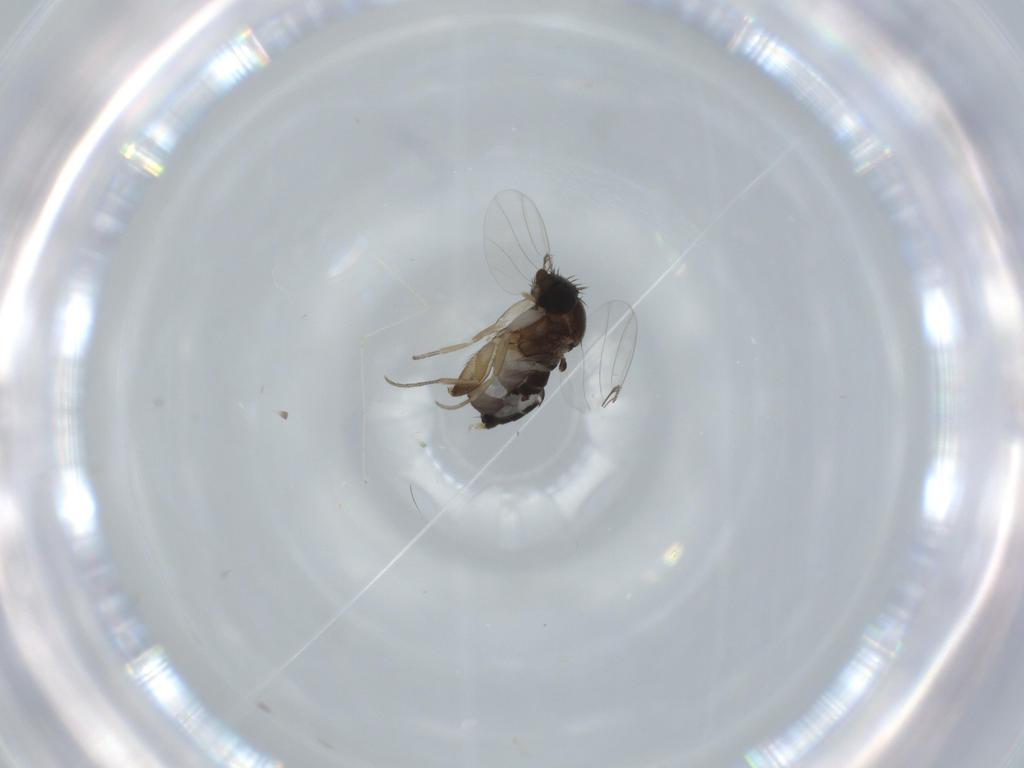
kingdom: Animalia
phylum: Arthropoda
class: Insecta
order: Diptera
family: Phoridae
